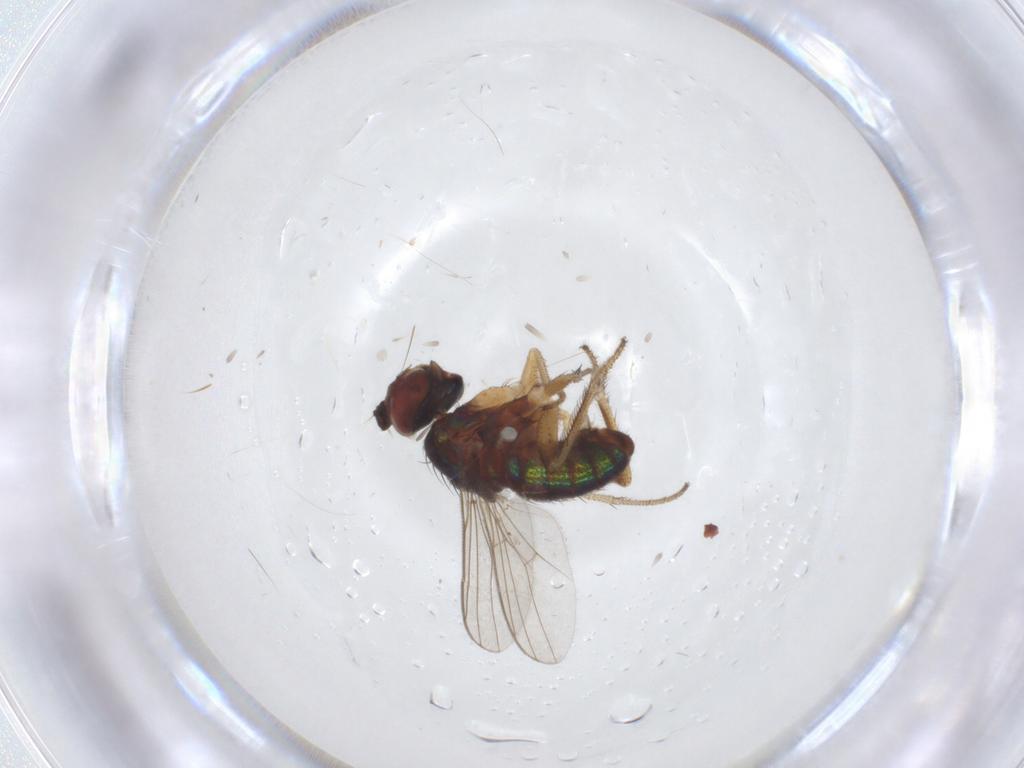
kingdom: Animalia
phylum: Arthropoda
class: Insecta
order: Diptera
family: Dolichopodidae
